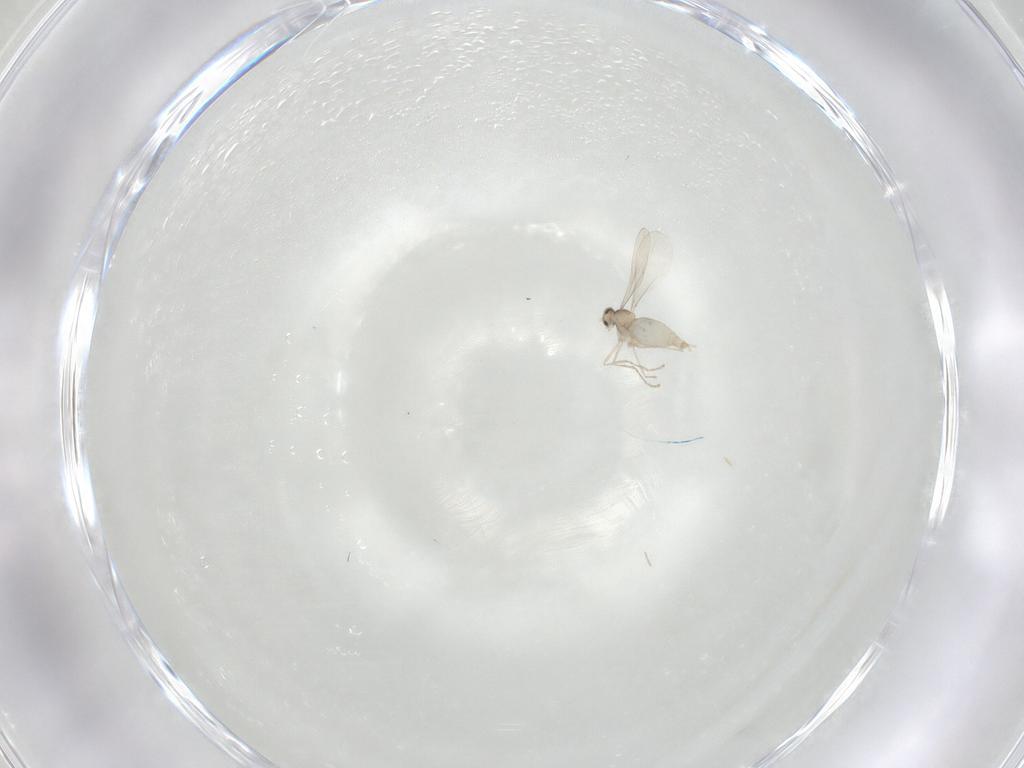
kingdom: Animalia
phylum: Arthropoda
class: Insecta
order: Diptera
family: Cecidomyiidae
